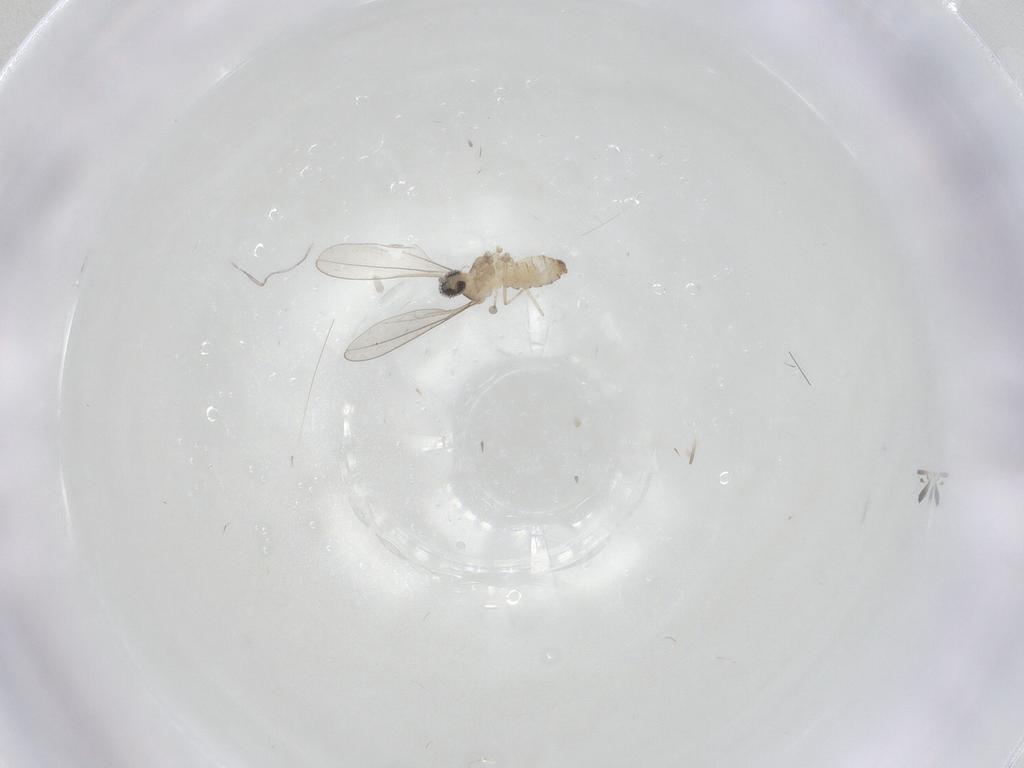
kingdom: Animalia
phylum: Arthropoda
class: Insecta
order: Diptera
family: Cecidomyiidae
